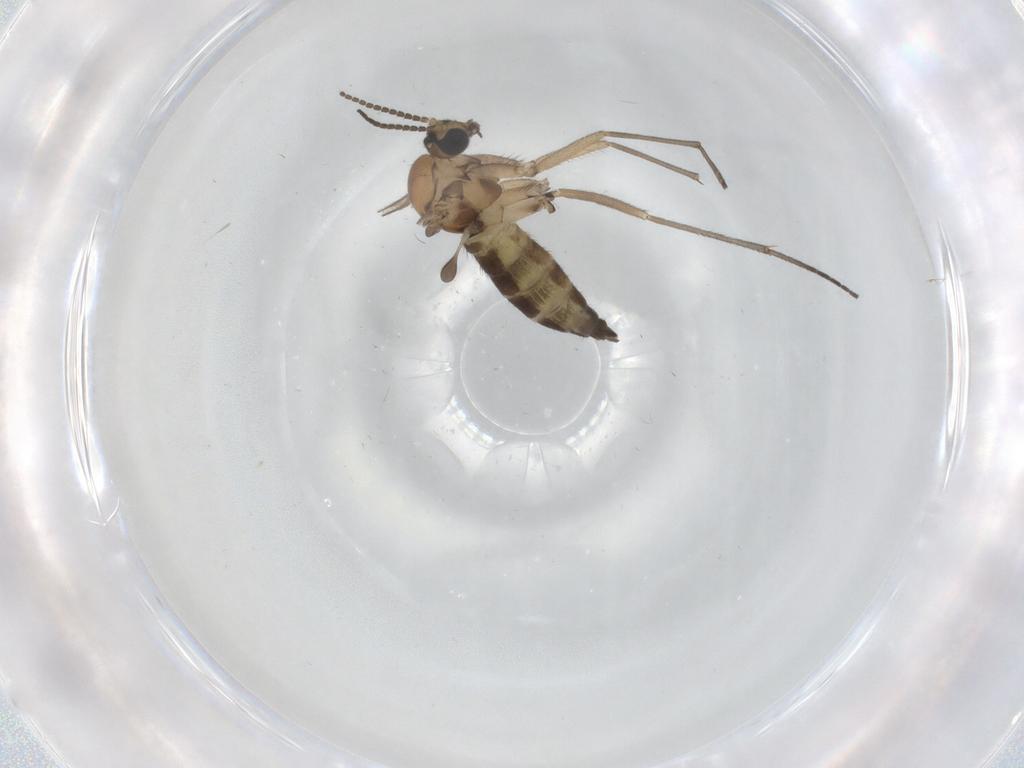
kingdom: Animalia
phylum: Arthropoda
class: Insecta
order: Diptera
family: Sciaridae
